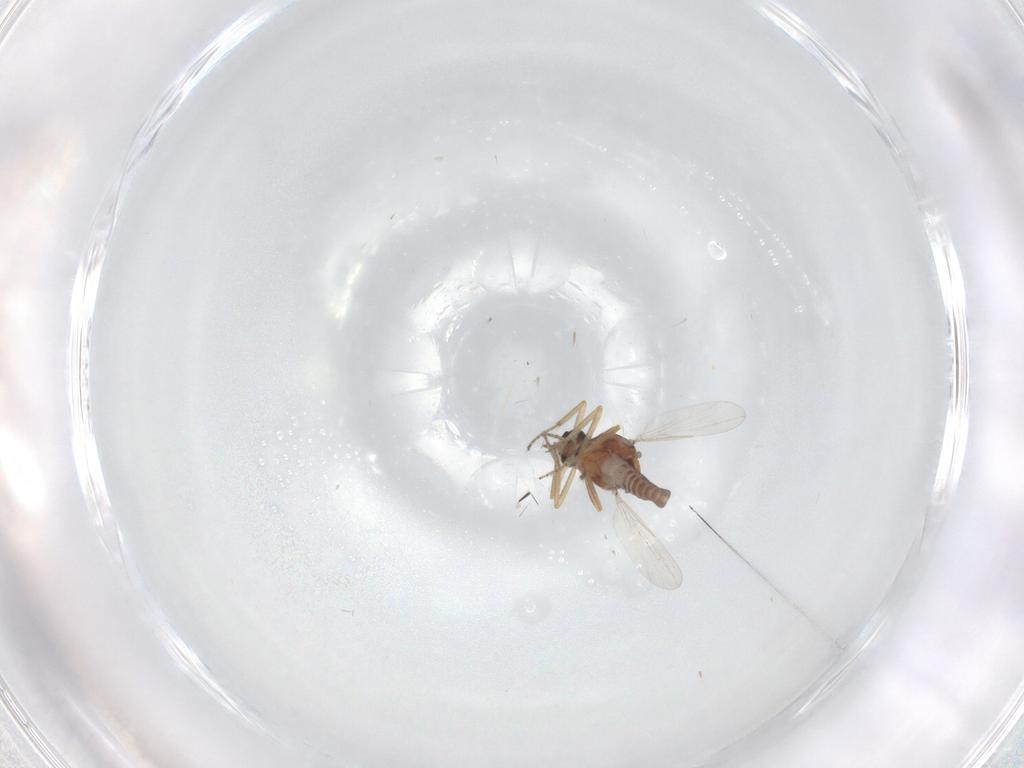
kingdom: Animalia
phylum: Arthropoda
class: Insecta
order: Diptera
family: Ceratopogonidae
